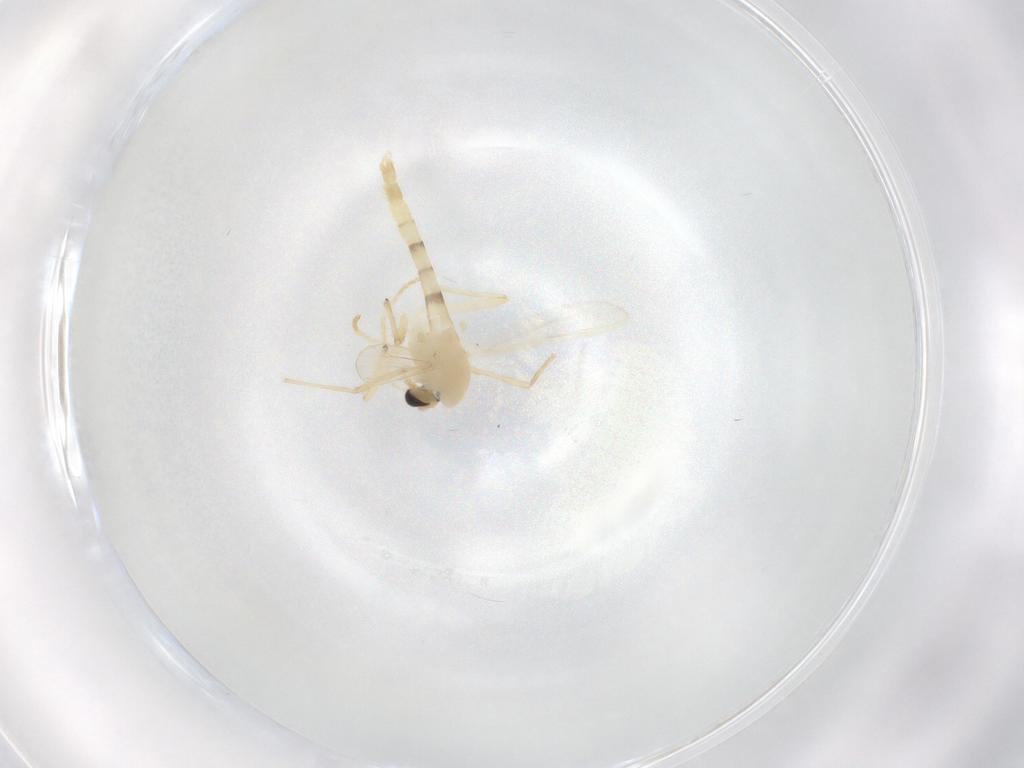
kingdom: Animalia
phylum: Arthropoda
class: Insecta
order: Diptera
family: Chironomidae
